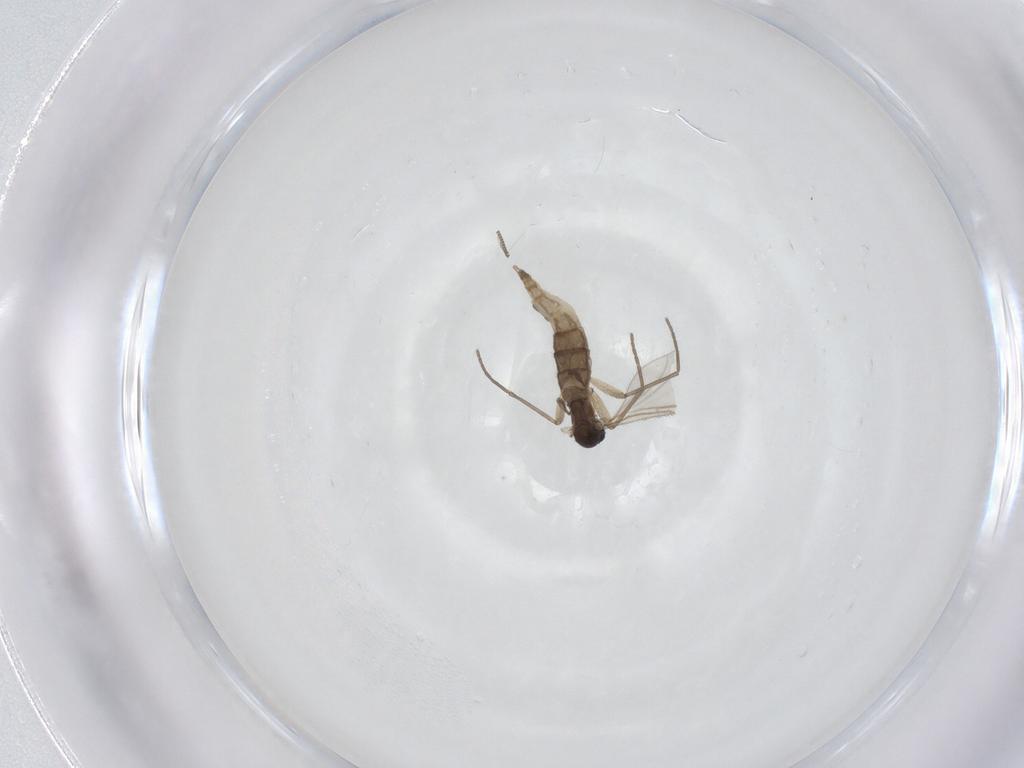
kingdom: Animalia
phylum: Arthropoda
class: Insecta
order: Diptera
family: Sciaridae
